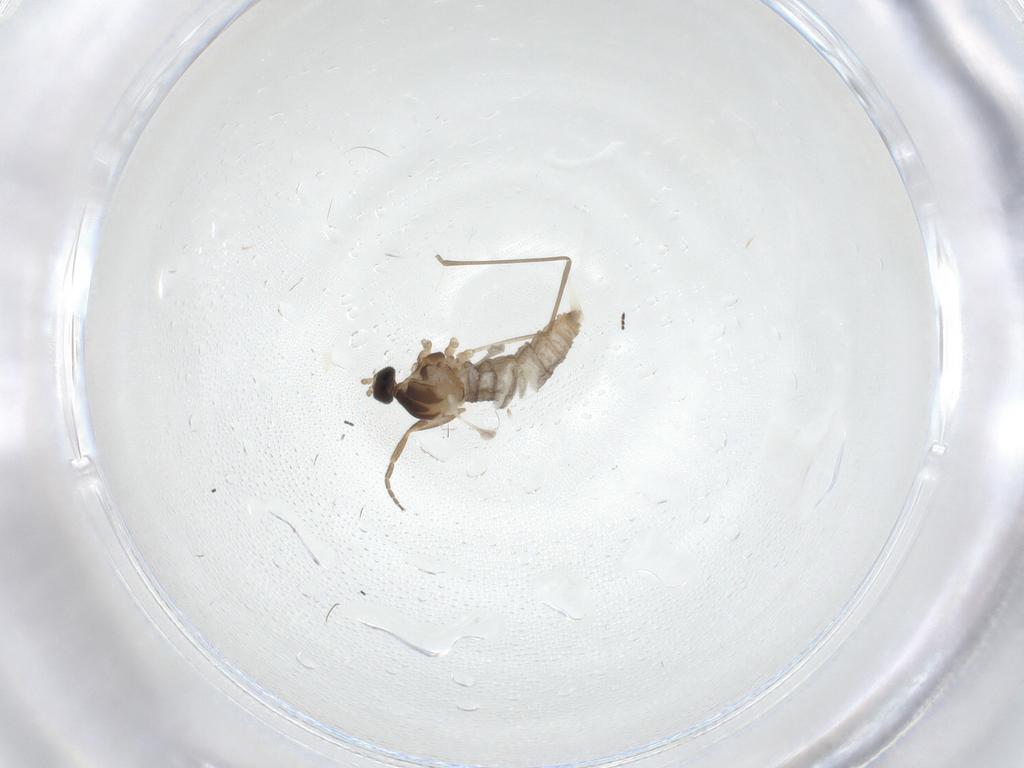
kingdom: Animalia
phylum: Arthropoda
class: Insecta
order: Diptera
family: Cecidomyiidae
